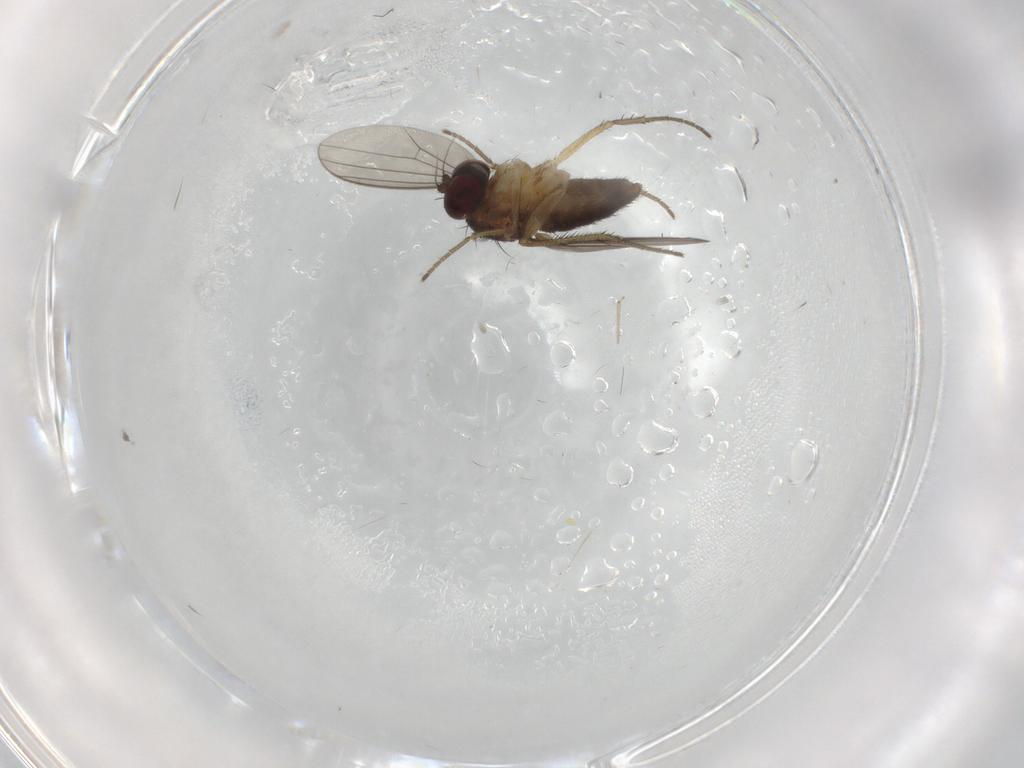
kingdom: Animalia
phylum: Arthropoda
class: Insecta
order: Diptera
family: Dolichopodidae
